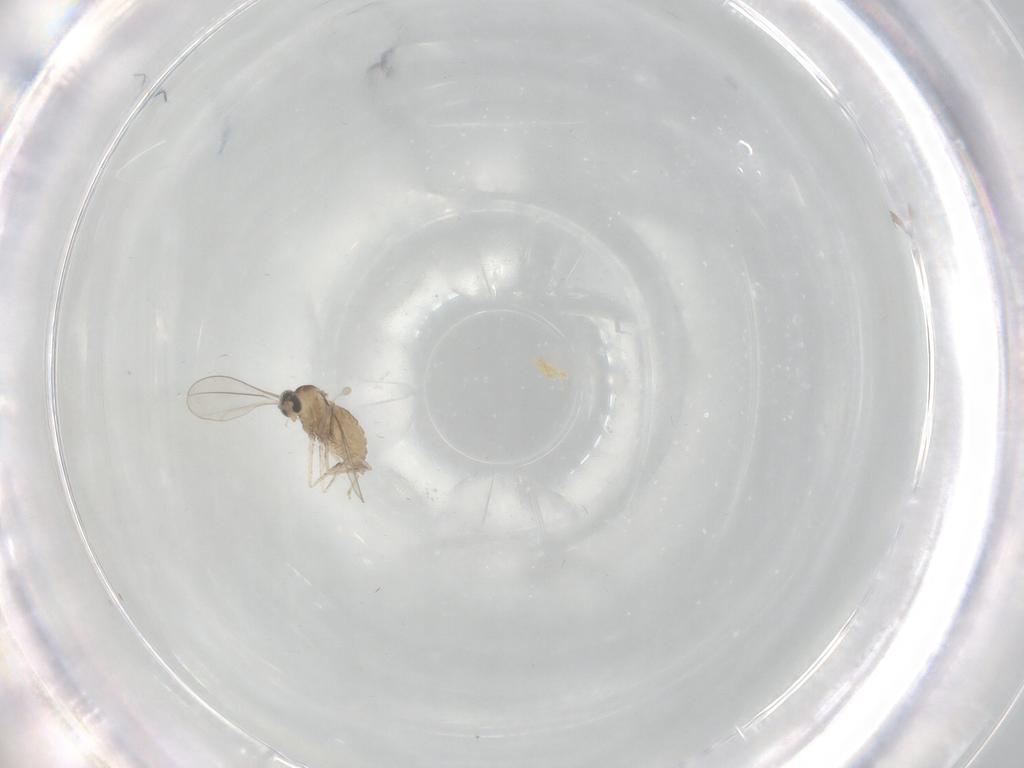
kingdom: Animalia
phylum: Arthropoda
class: Insecta
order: Diptera
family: Cecidomyiidae
